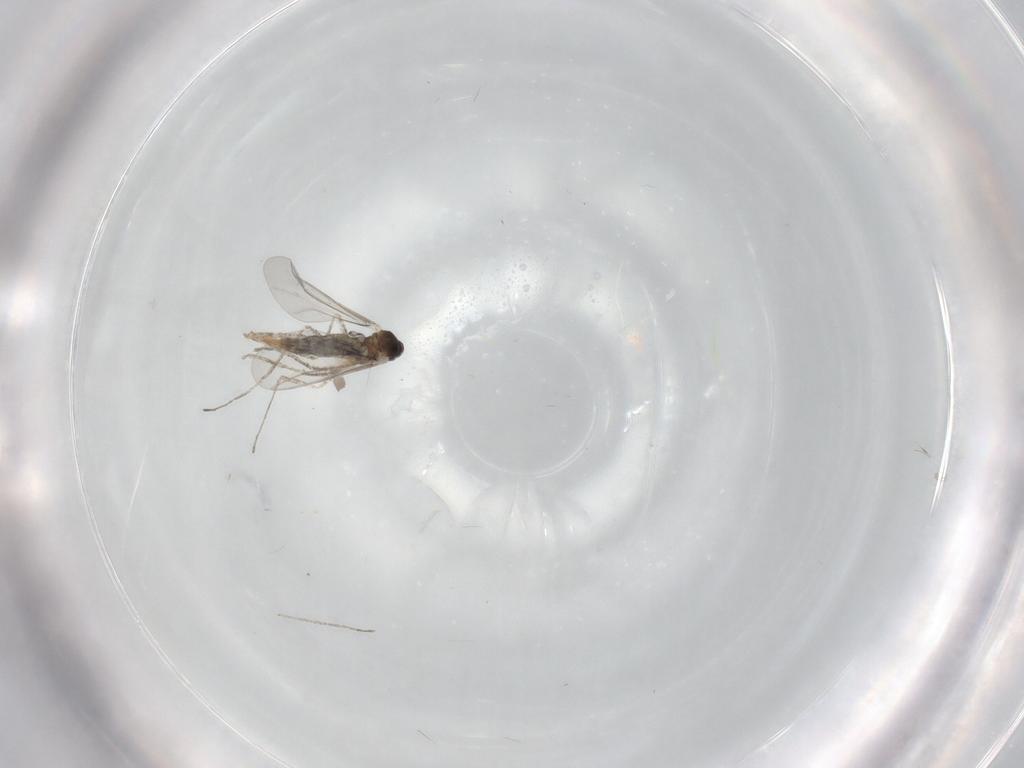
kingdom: Animalia
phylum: Arthropoda
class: Insecta
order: Diptera
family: Cecidomyiidae
